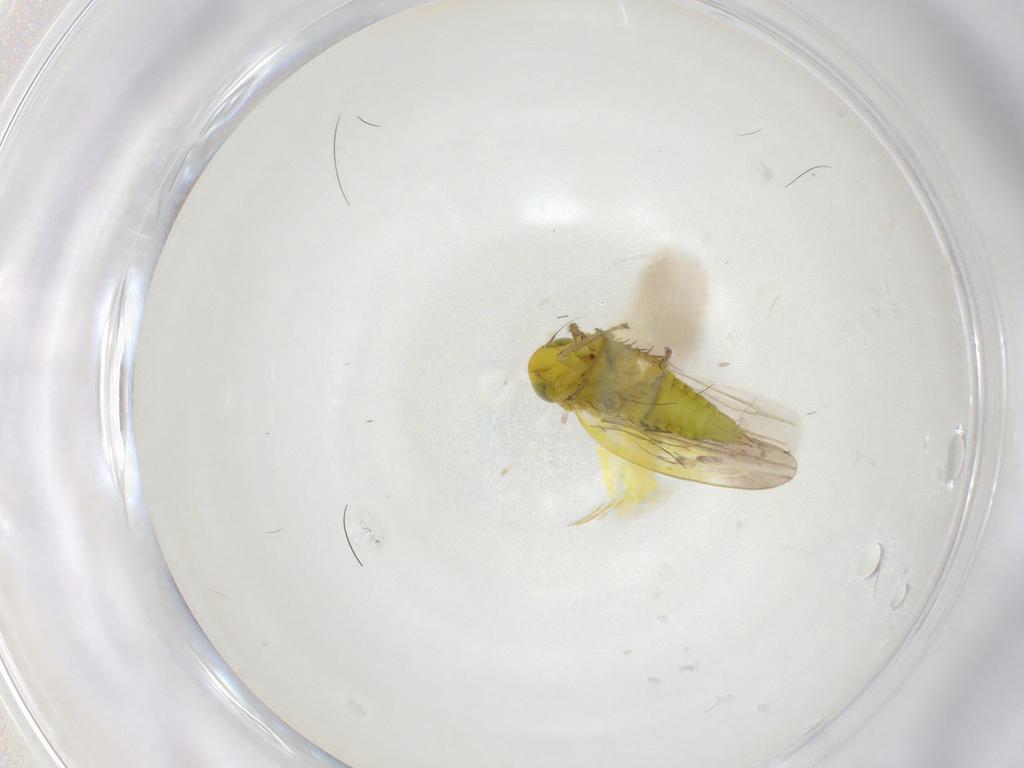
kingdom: Animalia
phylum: Arthropoda
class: Insecta
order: Hemiptera
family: Cicadellidae
